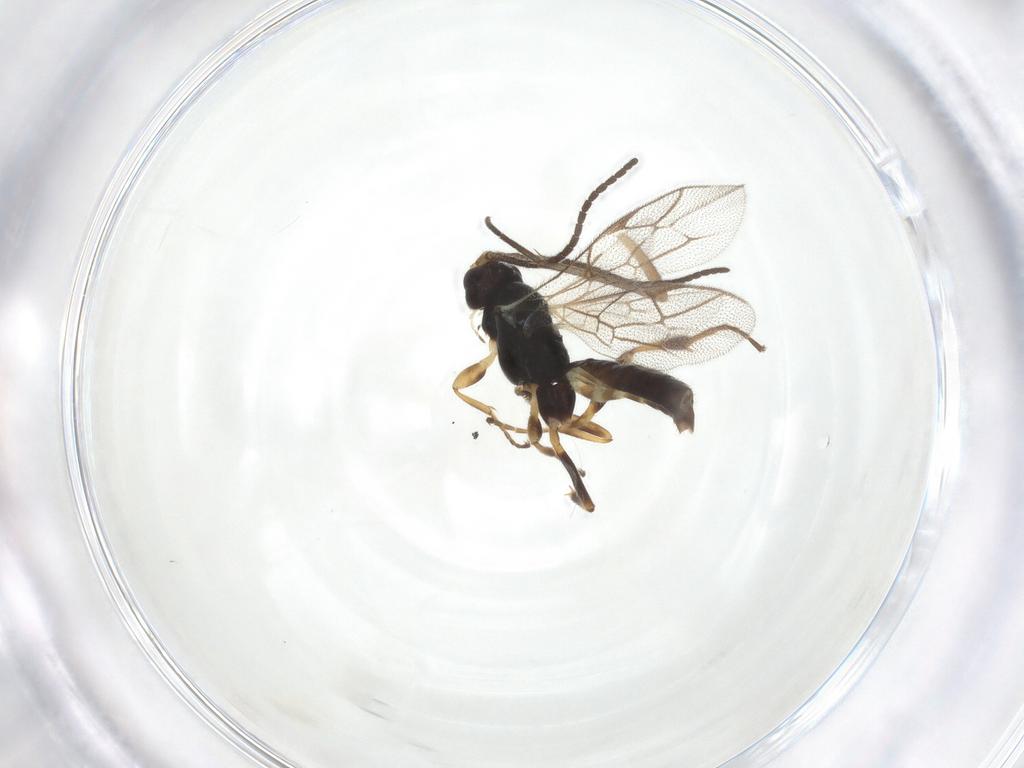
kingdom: Animalia
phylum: Arthropoda
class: Insecta
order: Hymenoptera
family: Ichneumonidae
